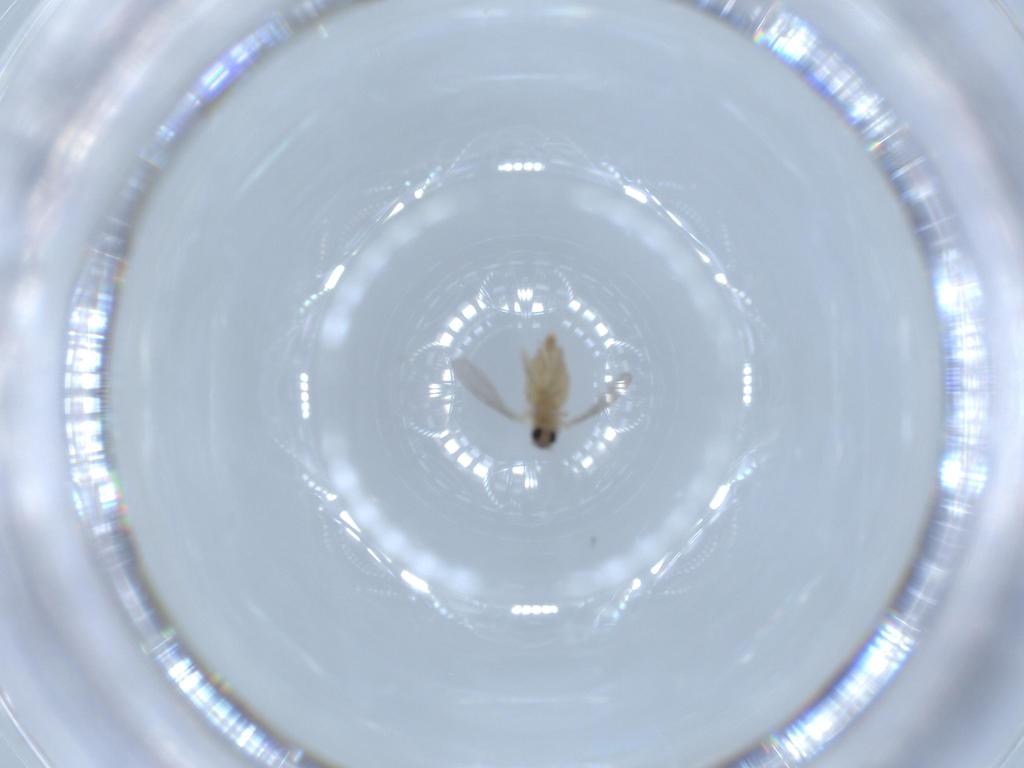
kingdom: Animalia
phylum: Arthropoda
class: Insecta
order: Diptera
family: Cecidomyiidae
